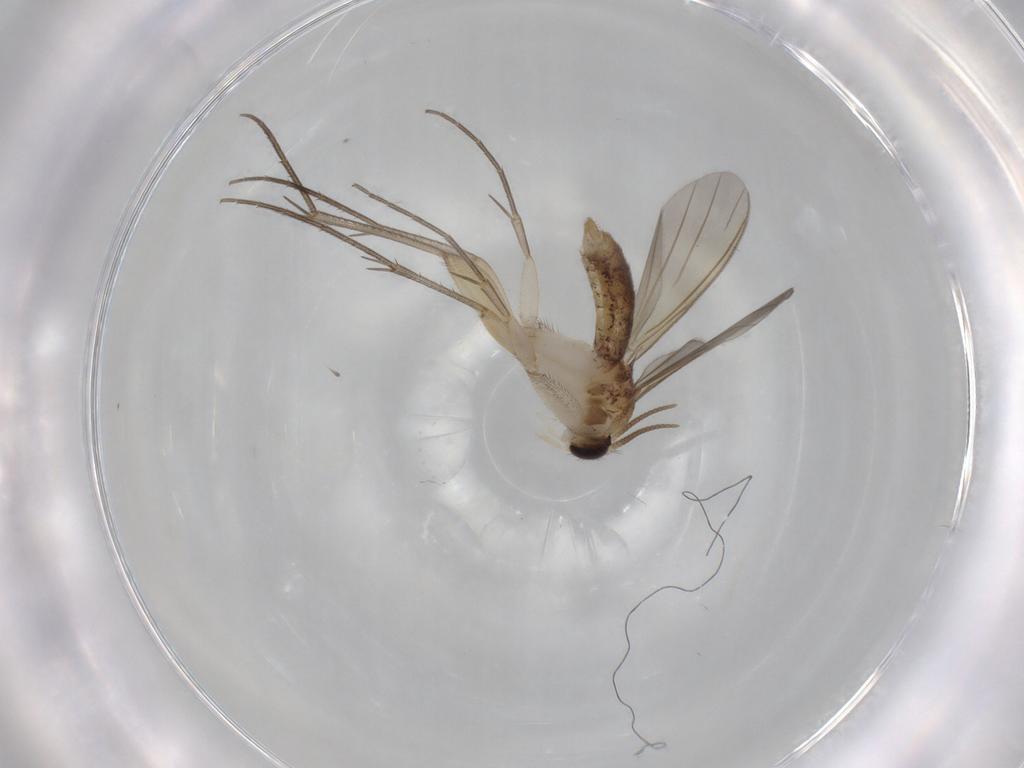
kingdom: Animalia
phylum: Arthropoda
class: Insecta
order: Diptera
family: Mycetophilidae
